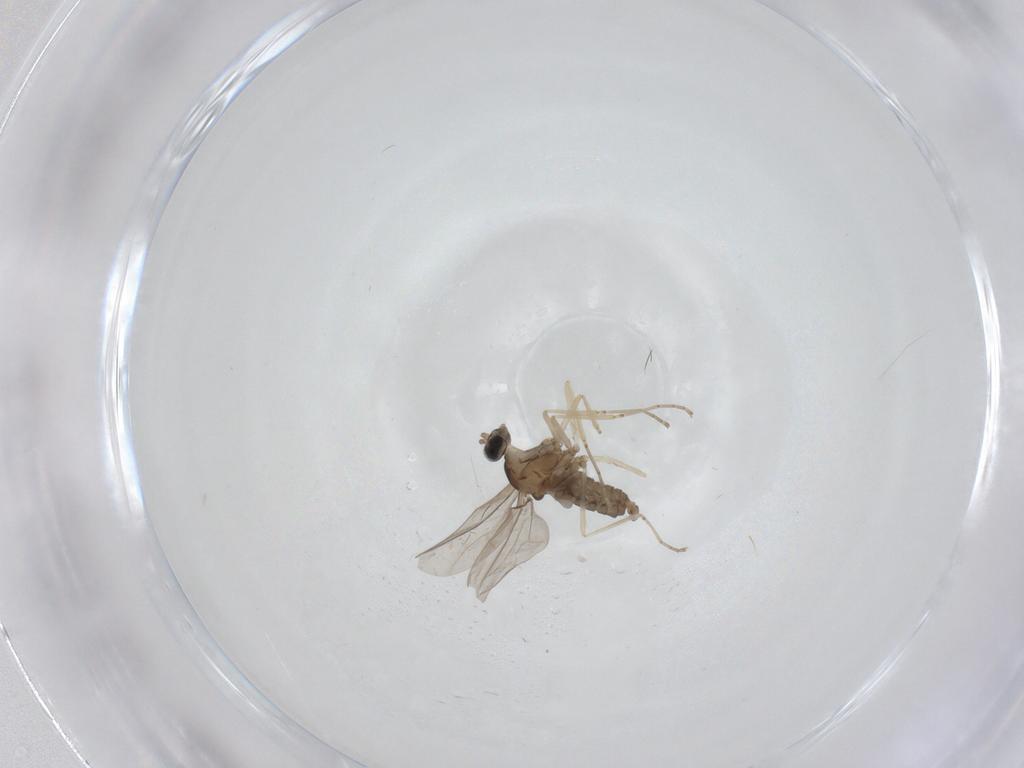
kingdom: Animalia
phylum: Arthropoda
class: Insecta
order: Diptera
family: Cecidomyiidae
